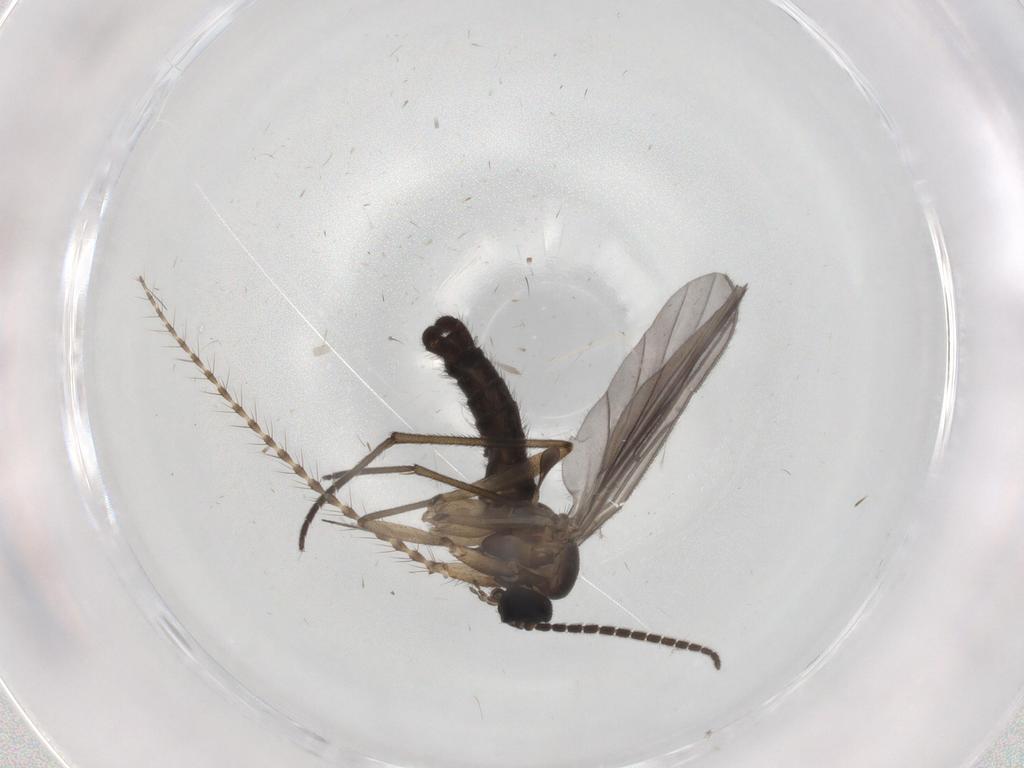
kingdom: Animalia
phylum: Arthropoda
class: Insecta
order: Diptera
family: Sciaridae
